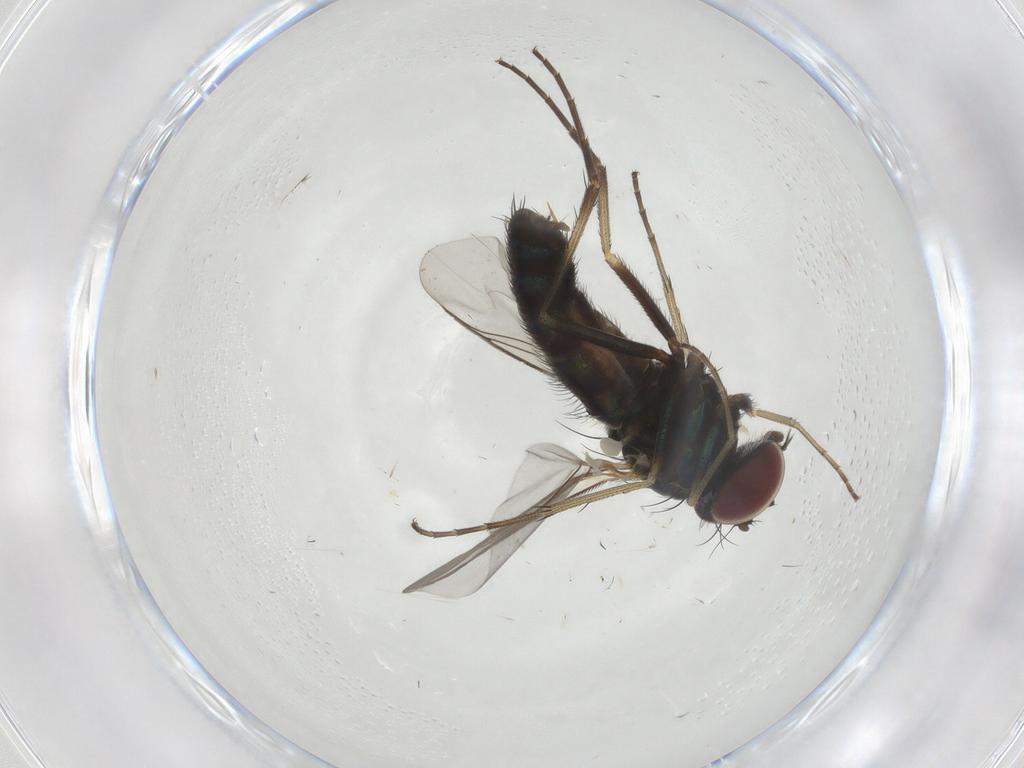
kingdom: Animalia
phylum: Arthropoda
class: Insecta
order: Diptera
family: Dolichopodidae
